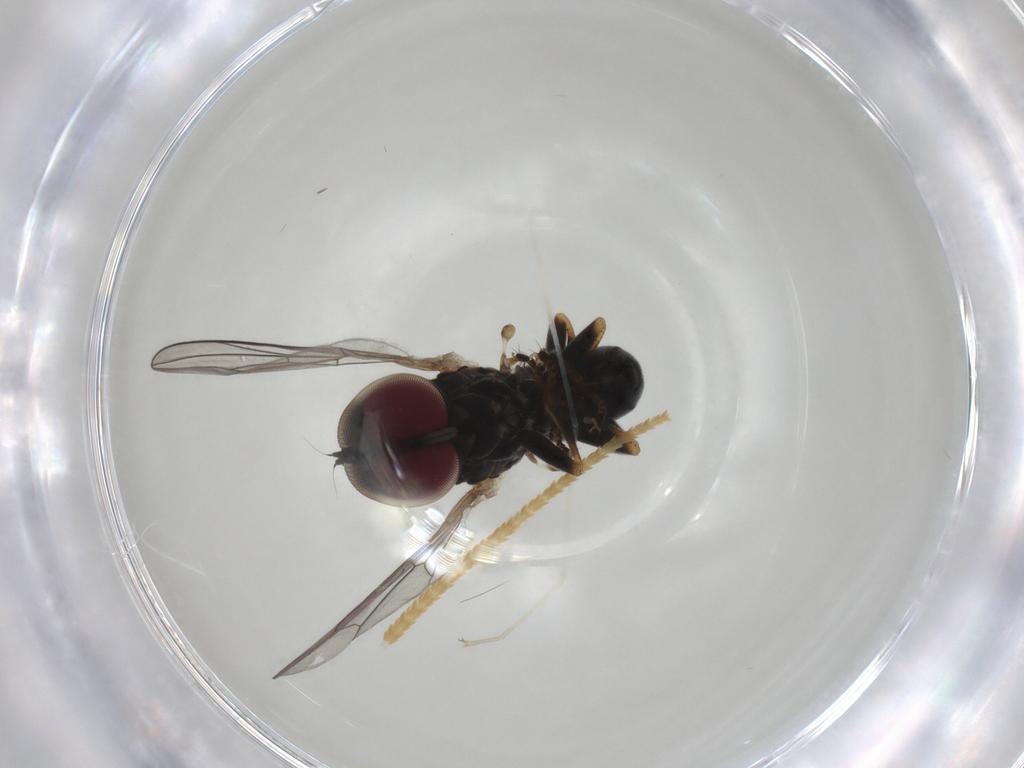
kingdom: Animalia
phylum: Arthropoda
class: Insecta
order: Diptera
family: Pipunculidae
